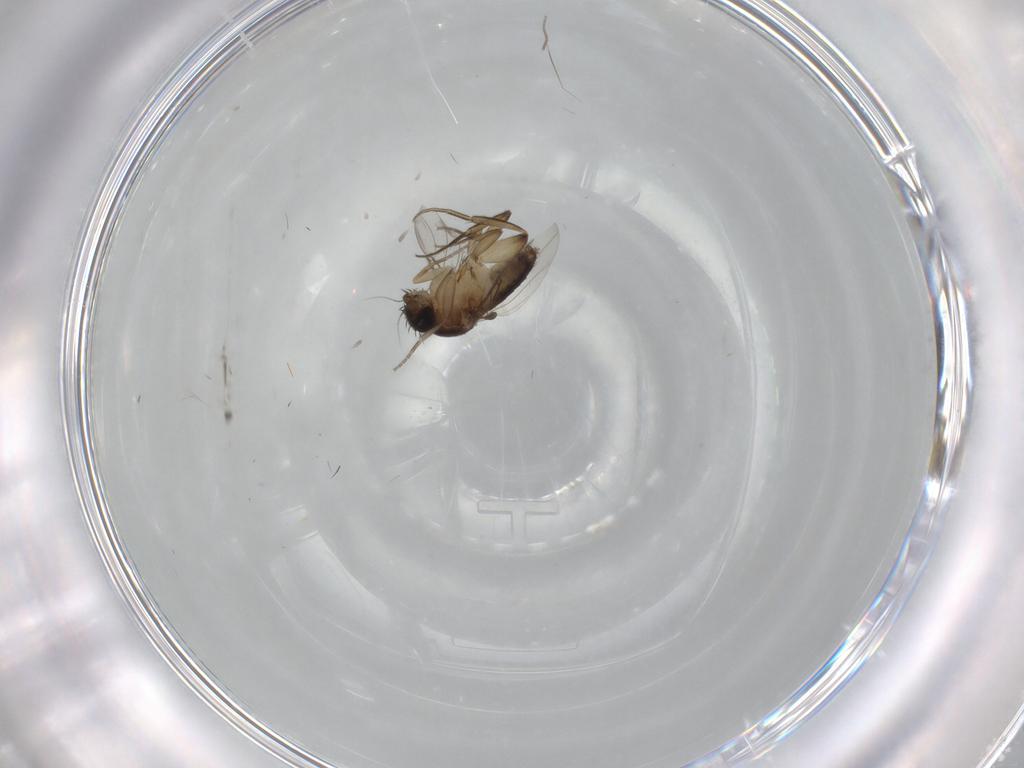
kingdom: Animalia
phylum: Arthropoda
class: Insecta
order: Diptera
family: Phoridae
